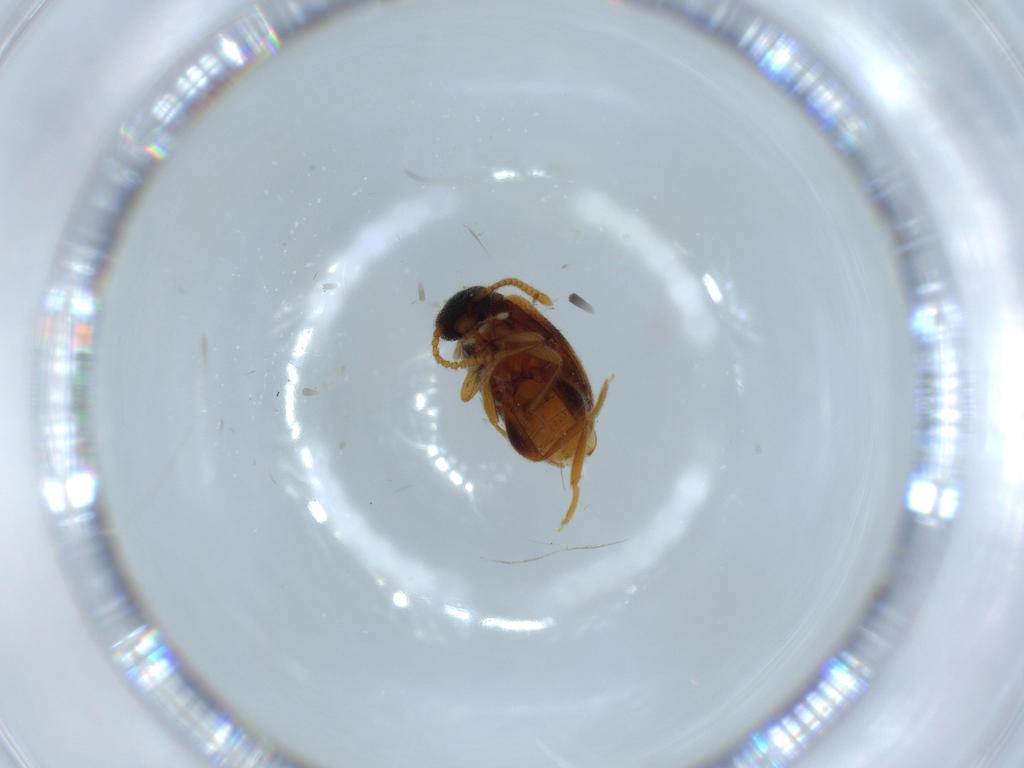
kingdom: Animalia
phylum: Arthropoda
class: Insecta
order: Coleoptera
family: Aderidae
